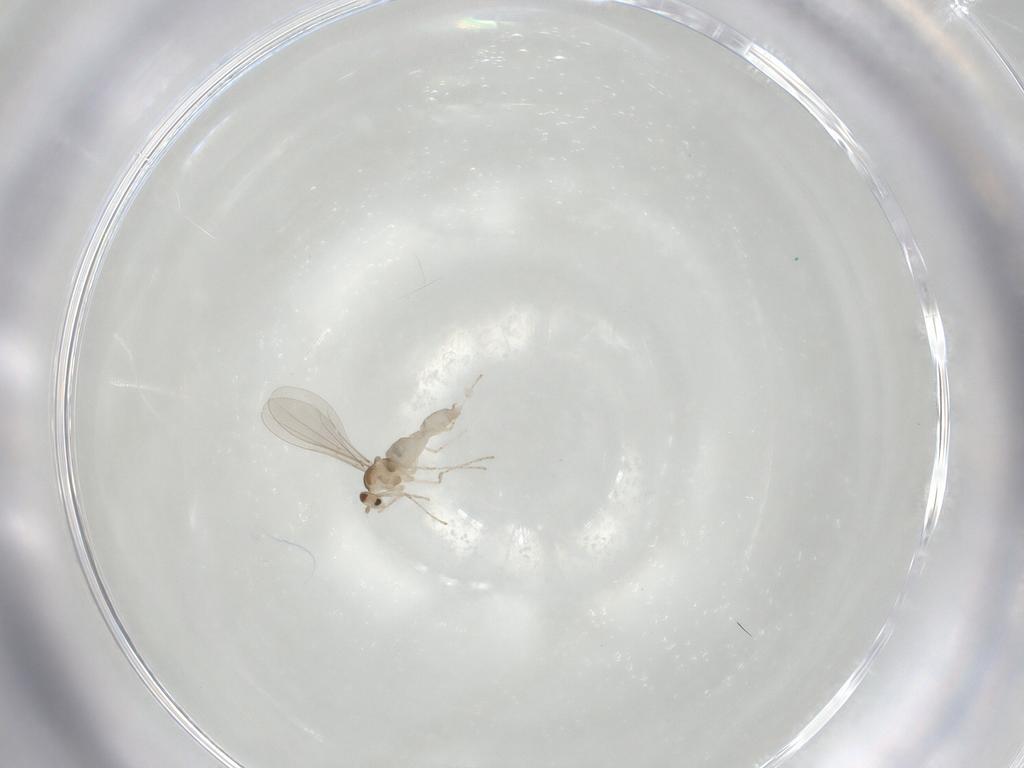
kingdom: Animalia
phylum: Arthropoda
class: Insecta
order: Diptera
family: Cecidomyiidae
